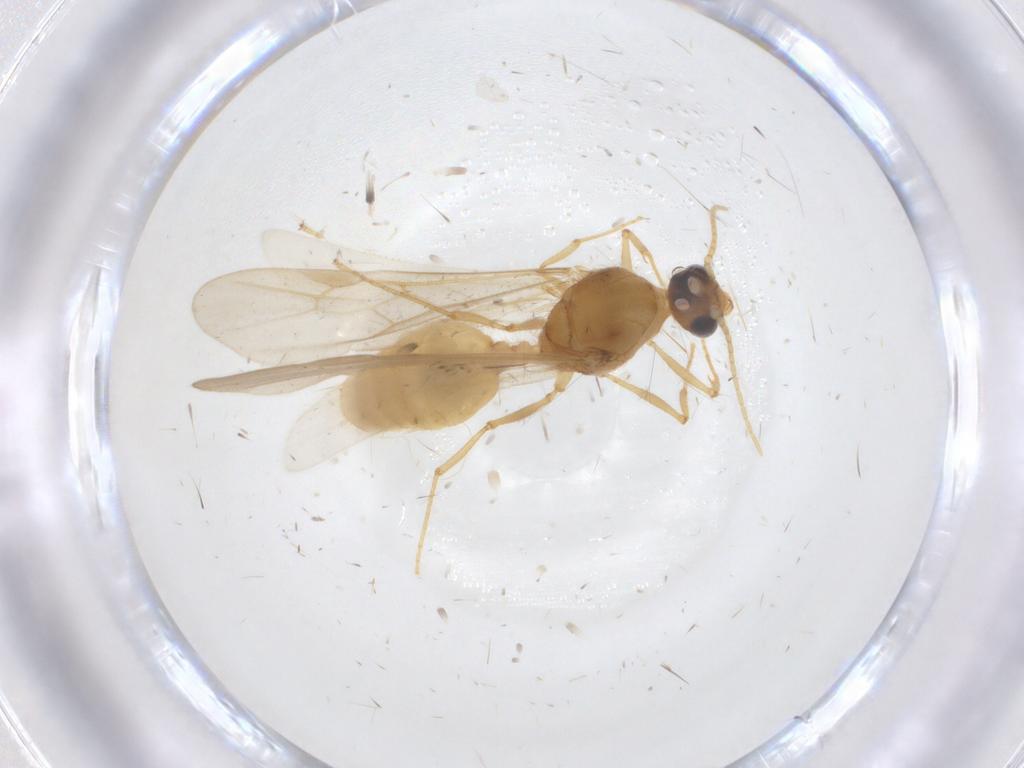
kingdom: Animalia
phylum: Arthropoda
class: Insecta
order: Hymenoptera
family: Formicidae
